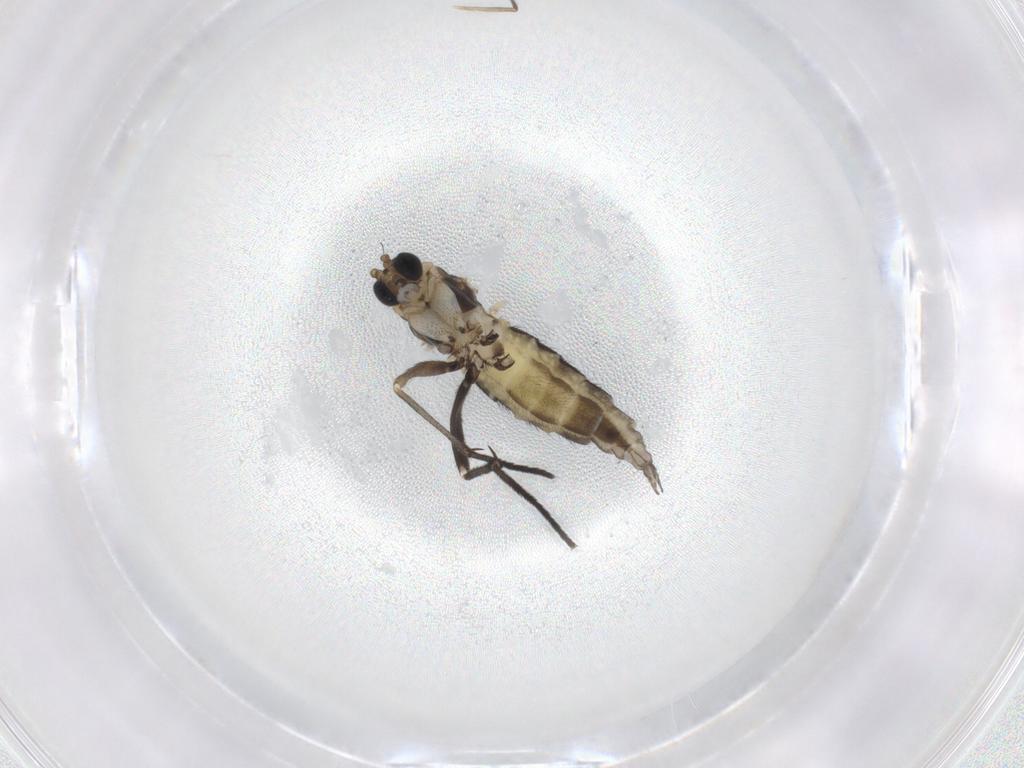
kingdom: Animalia
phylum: Arthropoda
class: Insecta
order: Diptera
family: Sciaridae
